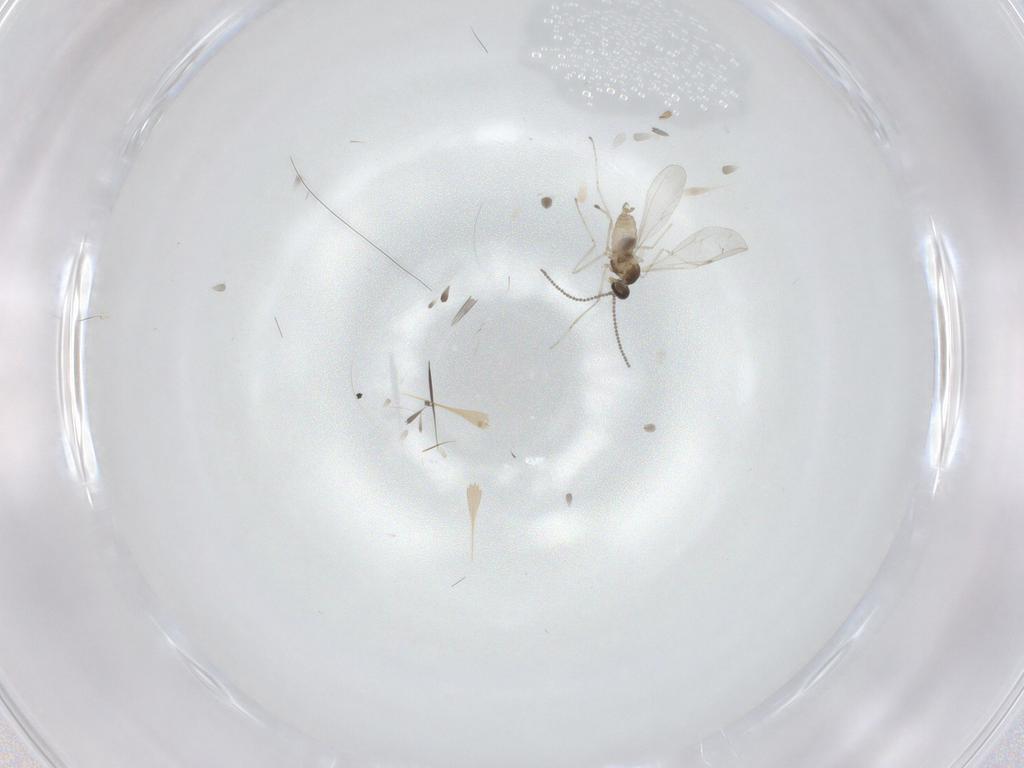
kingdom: Animalia
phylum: Arthropoda
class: Insecta
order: Diptera
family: Cecidomyiidae
